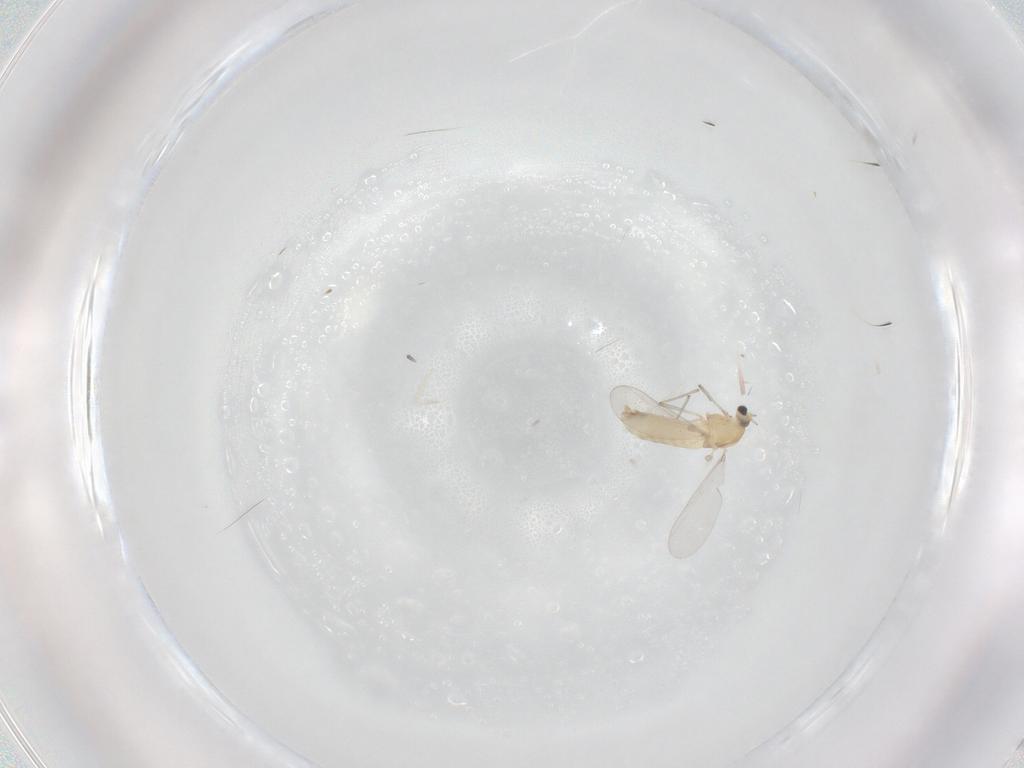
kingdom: Animalia
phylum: Arthropoda
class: Insecta
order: Diptera
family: Chironomidae
